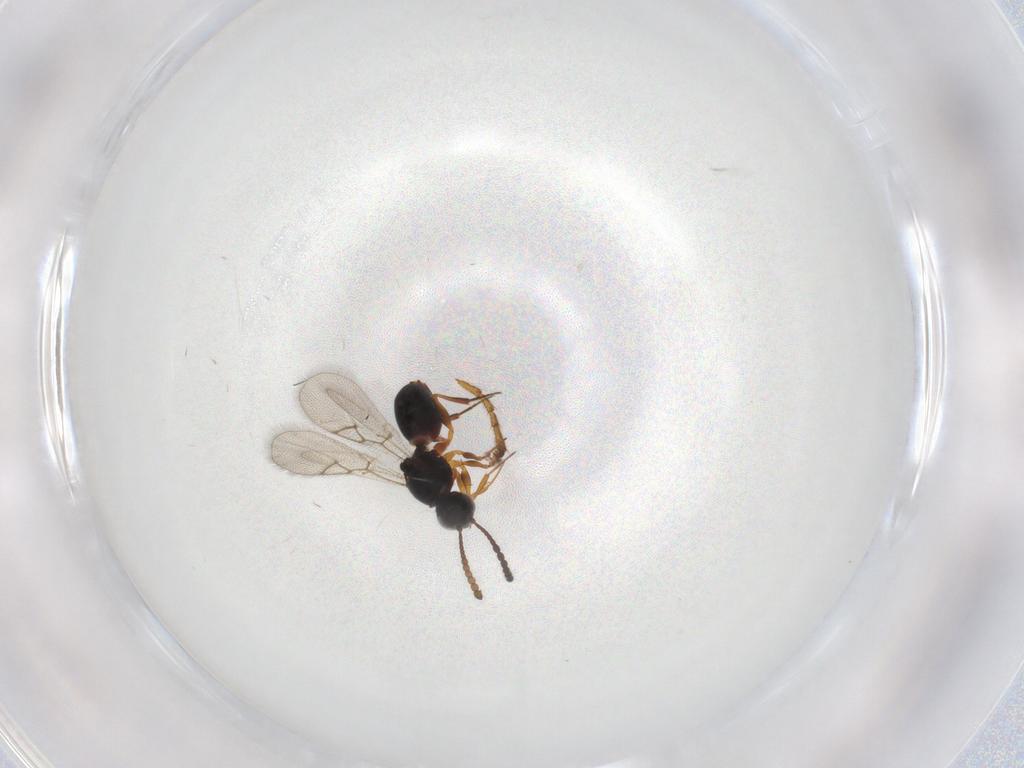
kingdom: Animalia
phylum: Arthropoda
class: Insecta
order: Hymenoptera
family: Figitidae
